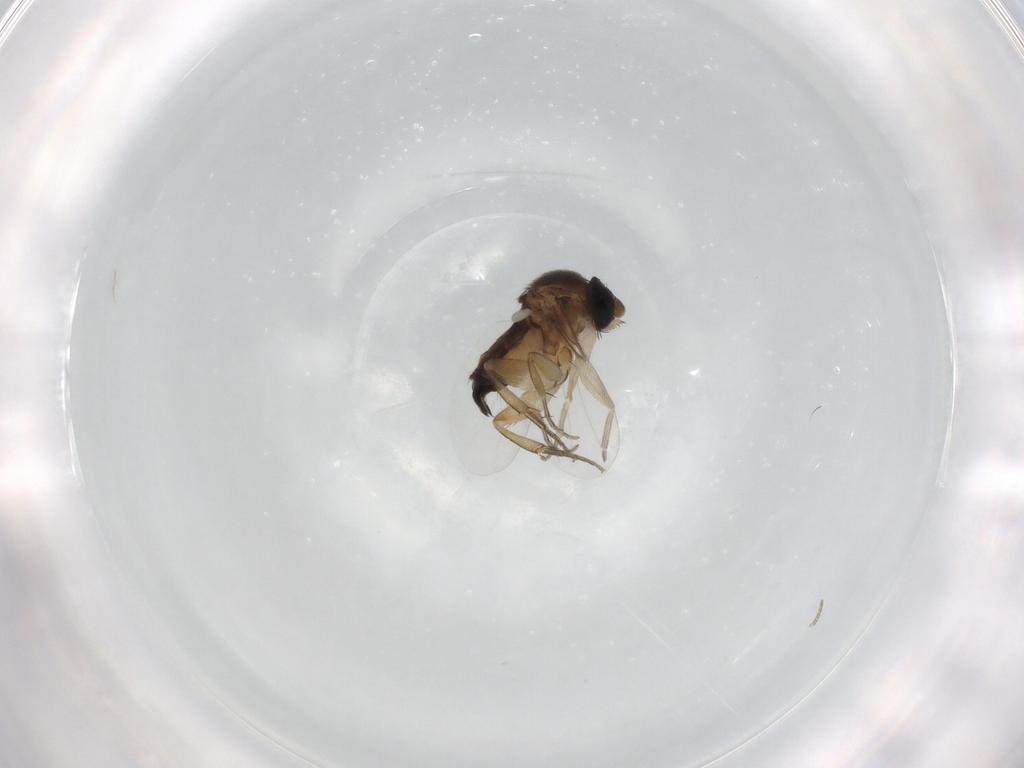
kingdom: Animalia
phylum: Arthropoda
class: Insecta
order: Diptera
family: Phoridae
